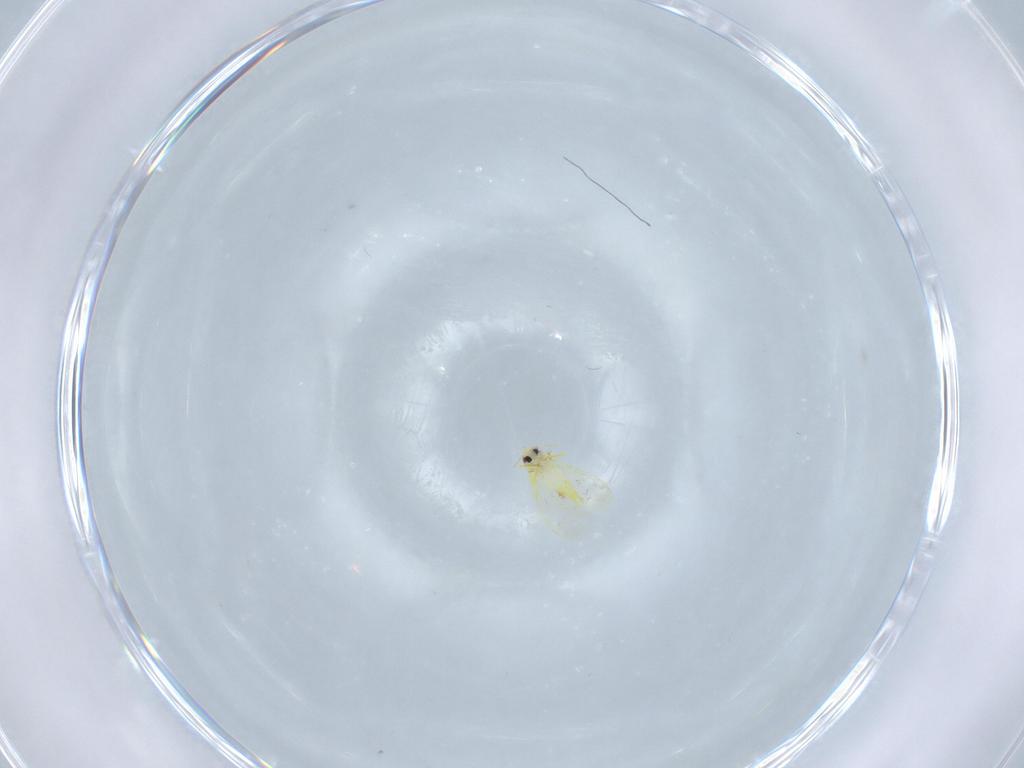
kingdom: Animalia
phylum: Arthropoda
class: Insecta
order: Hemiptera
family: Aleyrodidae
